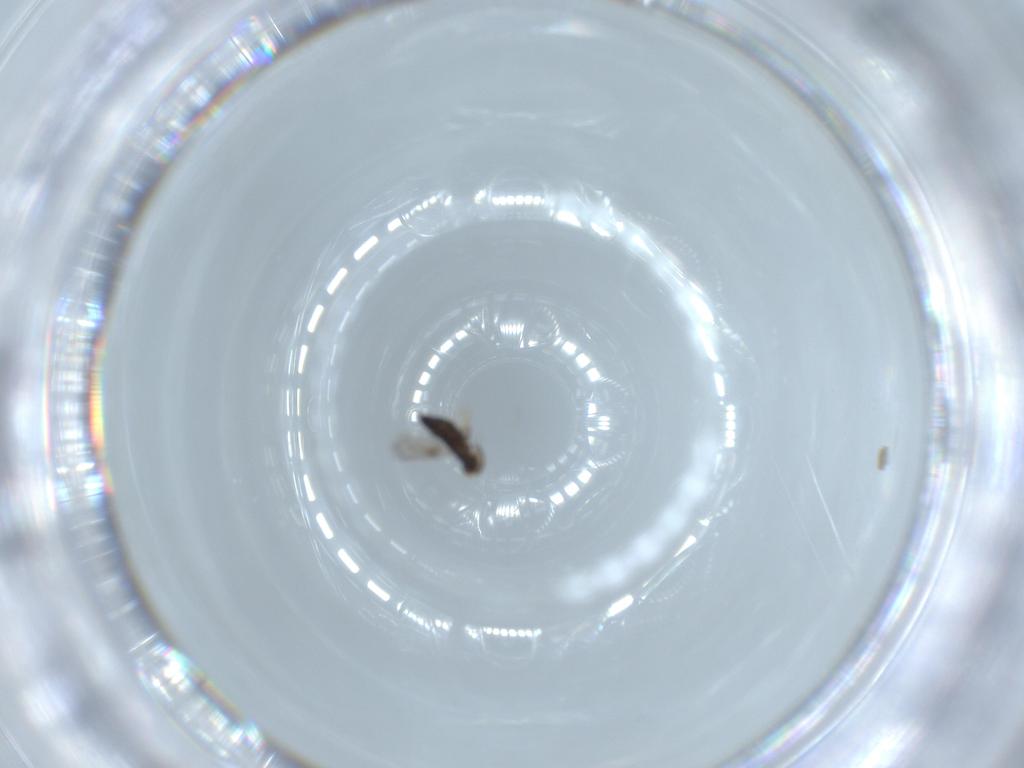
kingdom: Animalia
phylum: Arthropoda
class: Insecta
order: Hymenoptera
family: Signiphoridae
